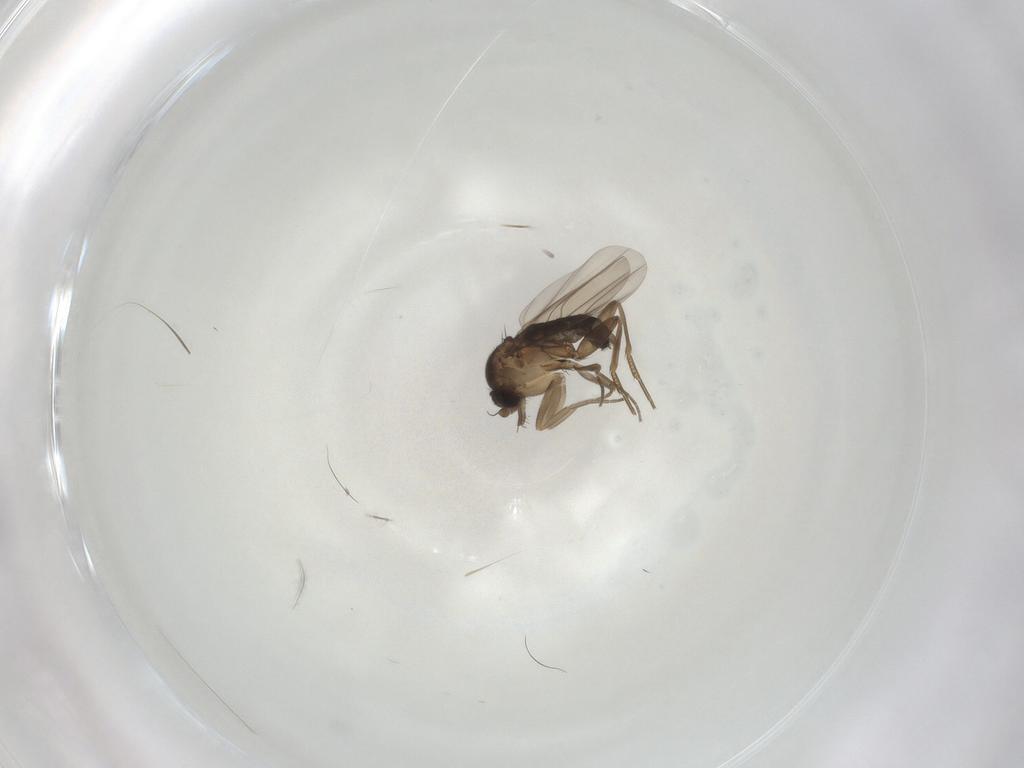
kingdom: Animalia
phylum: Arthropoda
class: Insecta
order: Diptera
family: Phoridae
